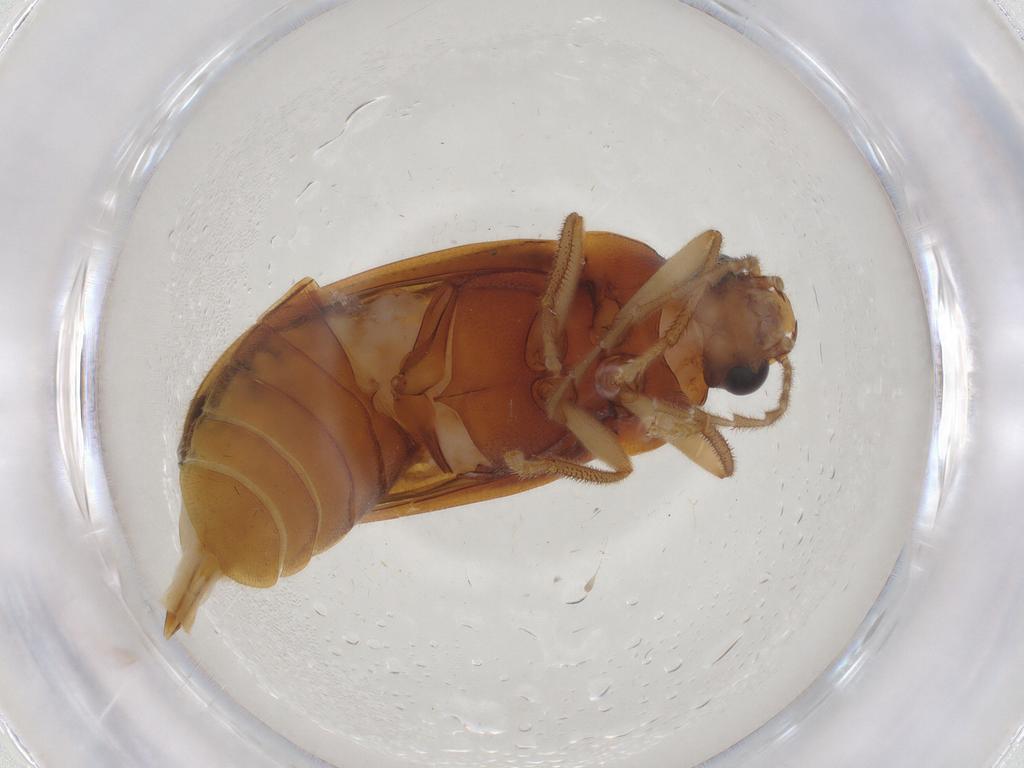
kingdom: Animalia
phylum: Arthropoda
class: Insecta
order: Coleoptera
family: Ptilodactylidae
